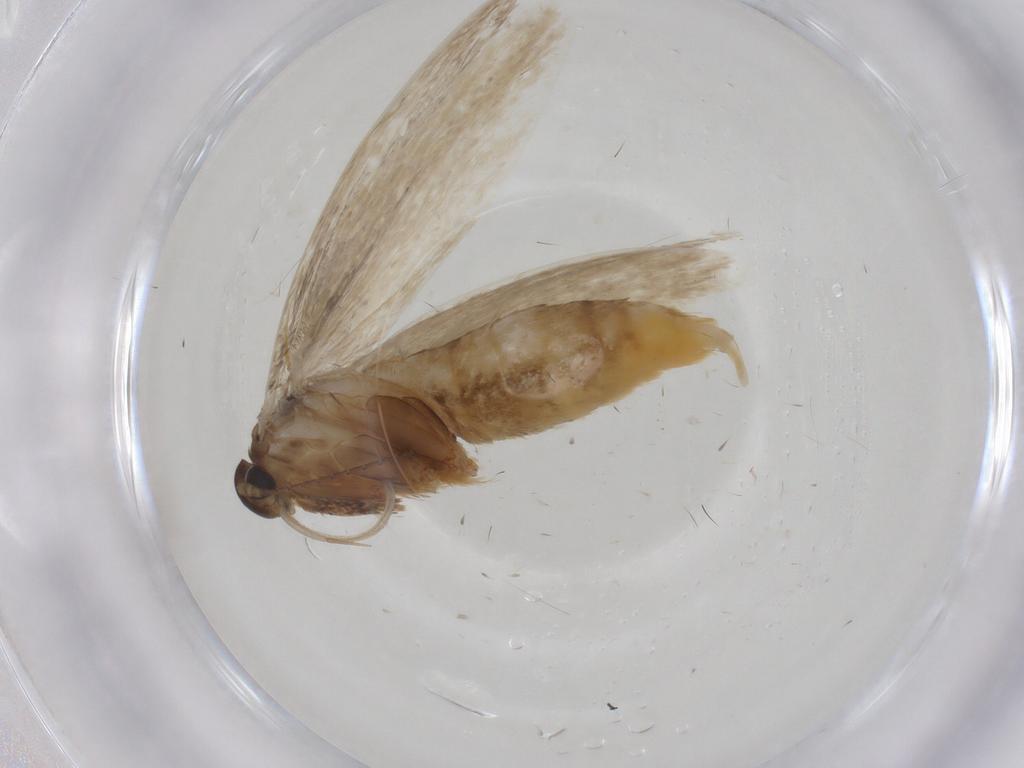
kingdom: Animalia
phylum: Arthropoda
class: Insecta
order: Lepidoptera
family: Erebidae
